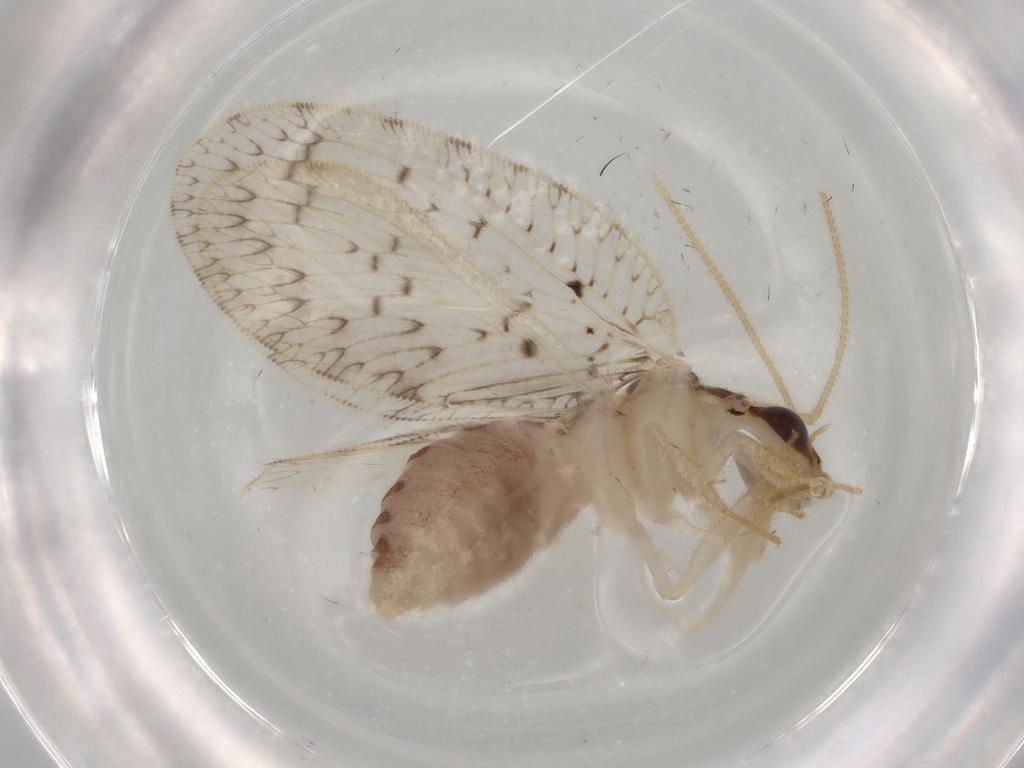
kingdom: Animalia
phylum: Arthropoda
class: Insecta
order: Neuroptera
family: Hemerobiidae
